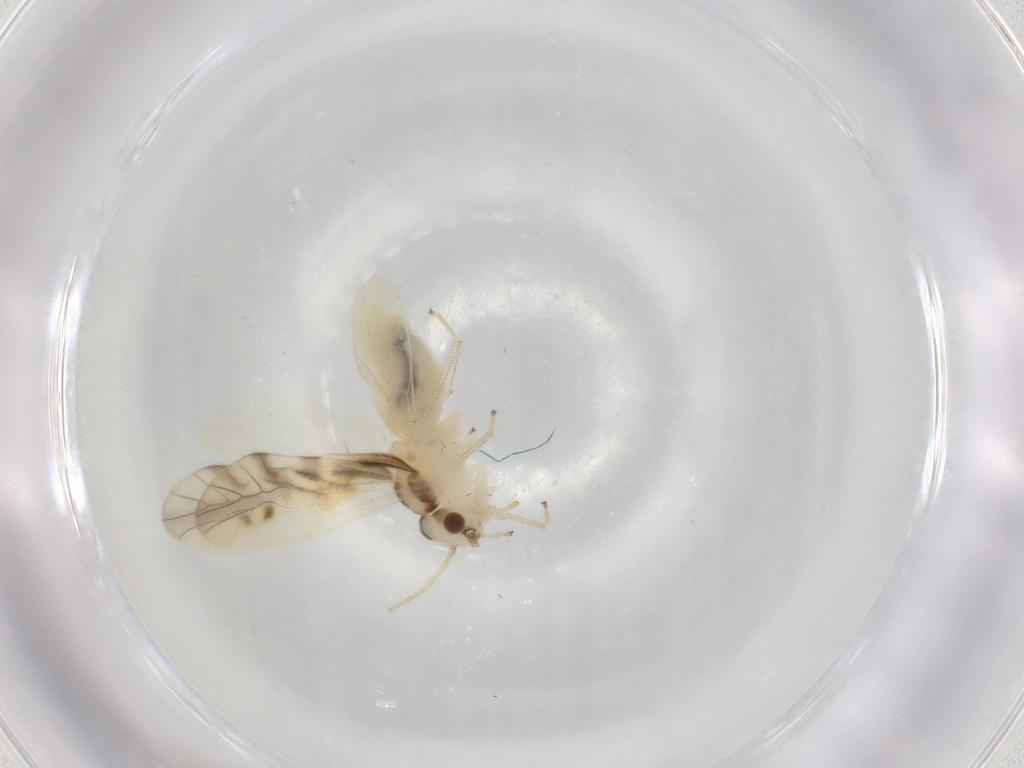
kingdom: Animalia
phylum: Arthropoda
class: Insecta
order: Psocodea
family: Caeciliusidae
